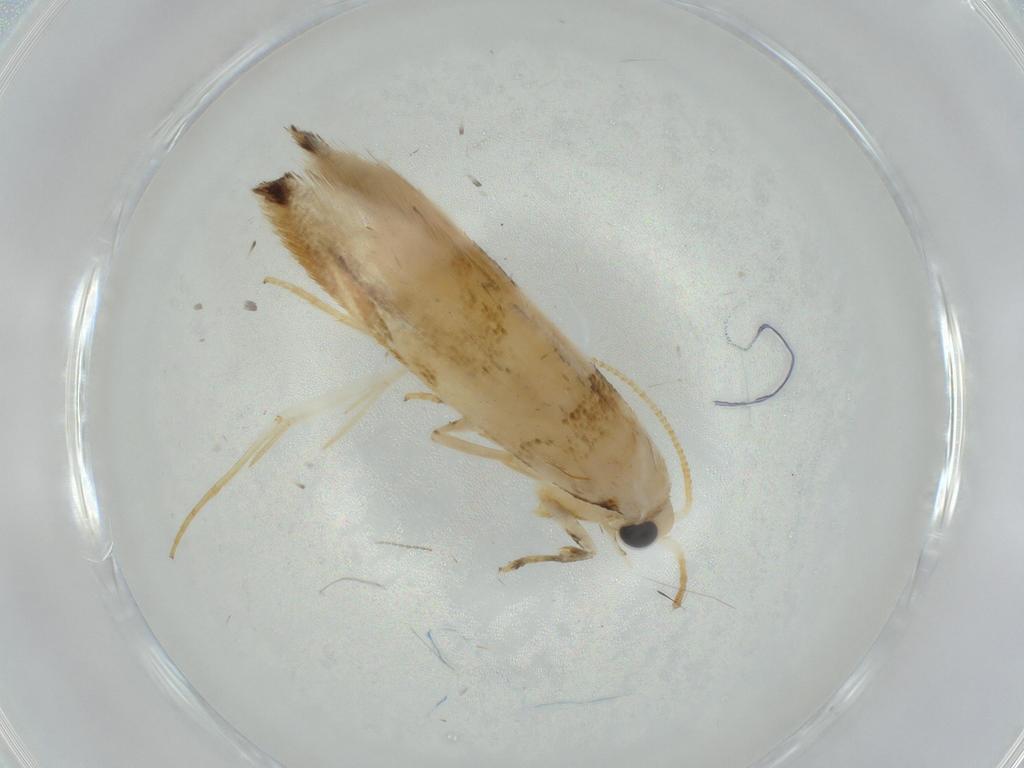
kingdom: Animalia
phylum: Arthropoda
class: Insecta
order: Lepidoptera
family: Tineidae
